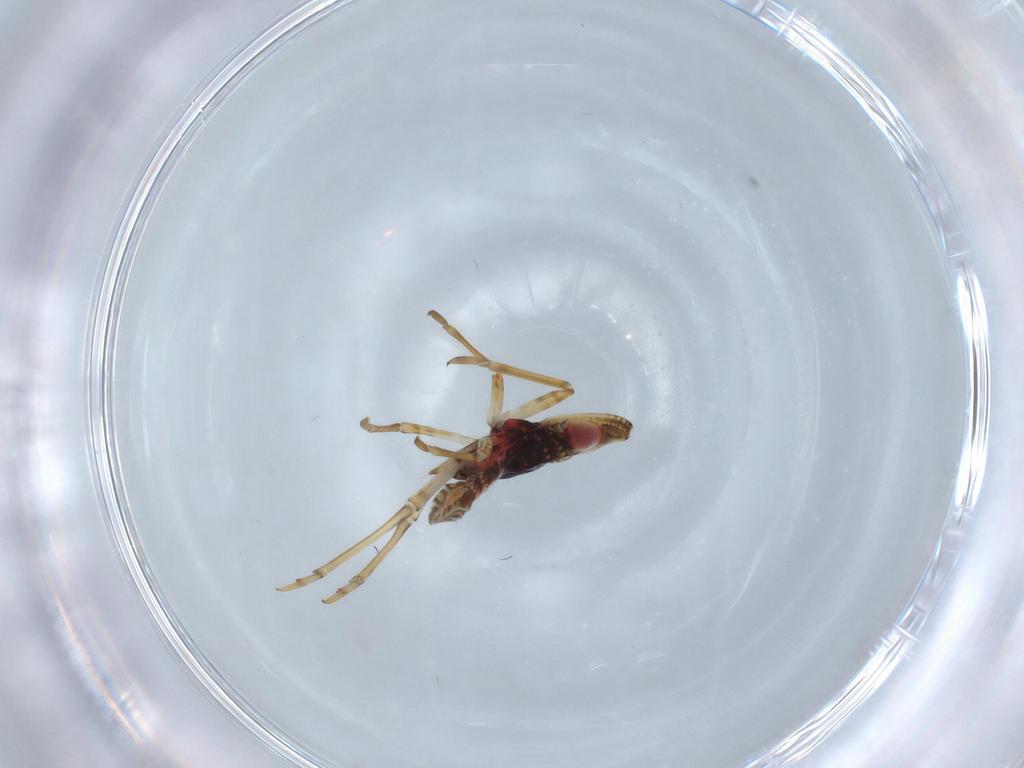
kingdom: Animalia
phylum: Arthropoda
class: Insecta
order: Hemiptera
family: Fulgoroidea_incertae_sedis
